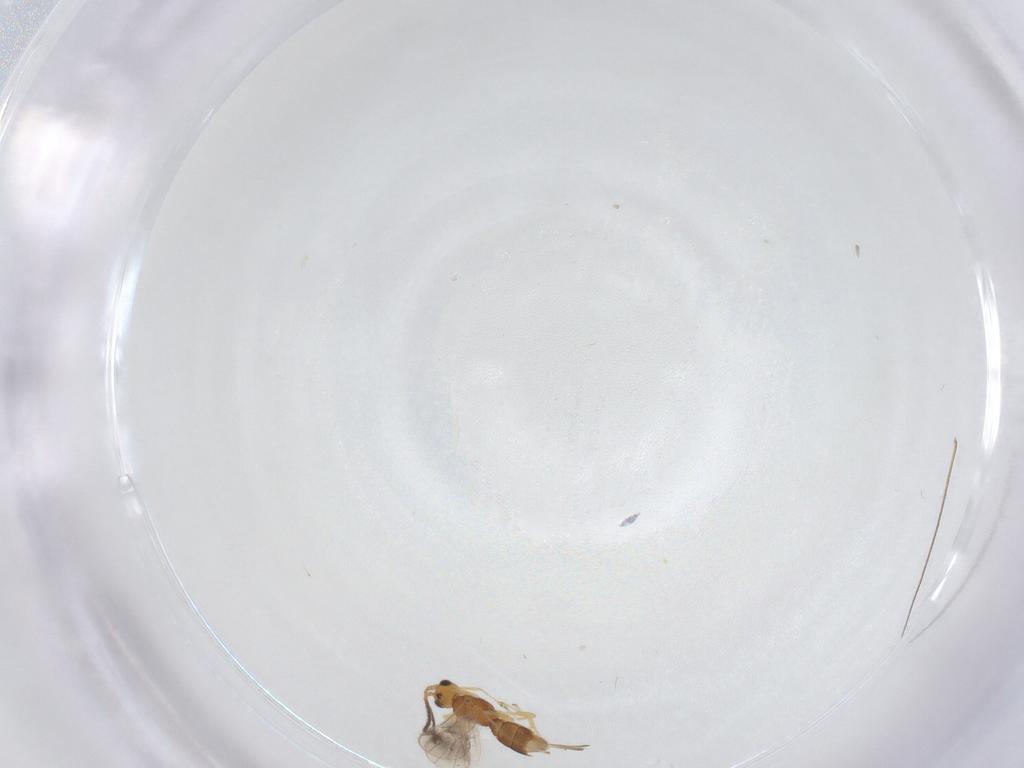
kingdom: Animalia
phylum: Arthropoda
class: Insecta
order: Hymenoptera
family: Braconidae
